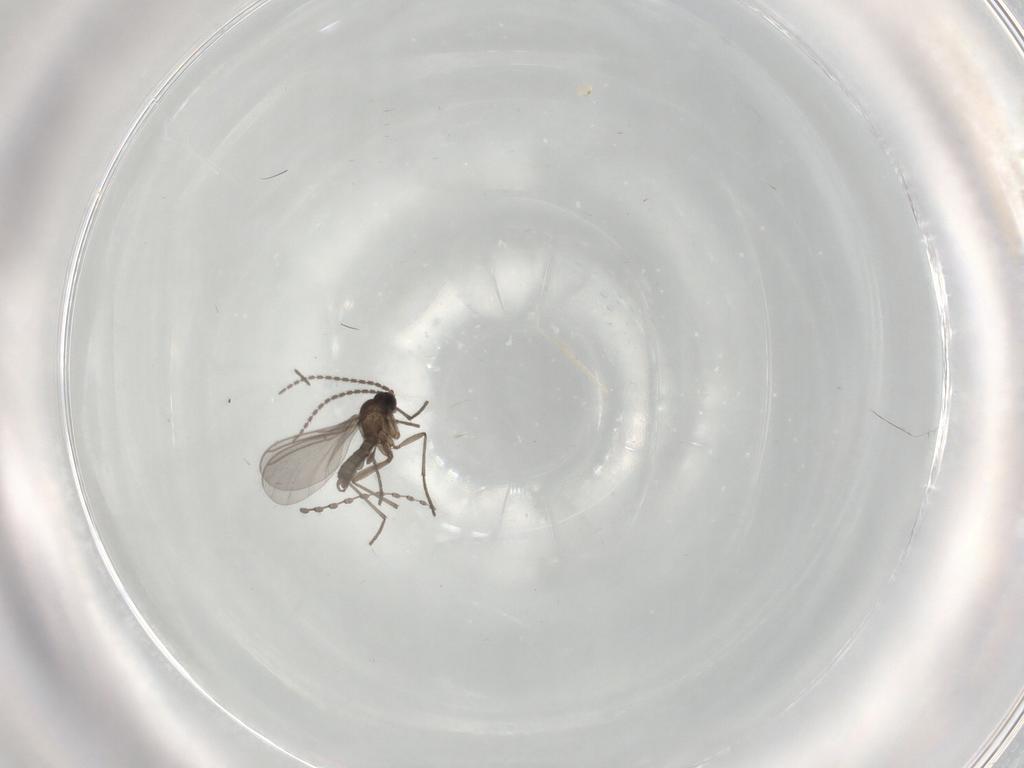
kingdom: Animalia
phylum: Arthropoda
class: Insecta
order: Diptera
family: Cecidomyiidae
